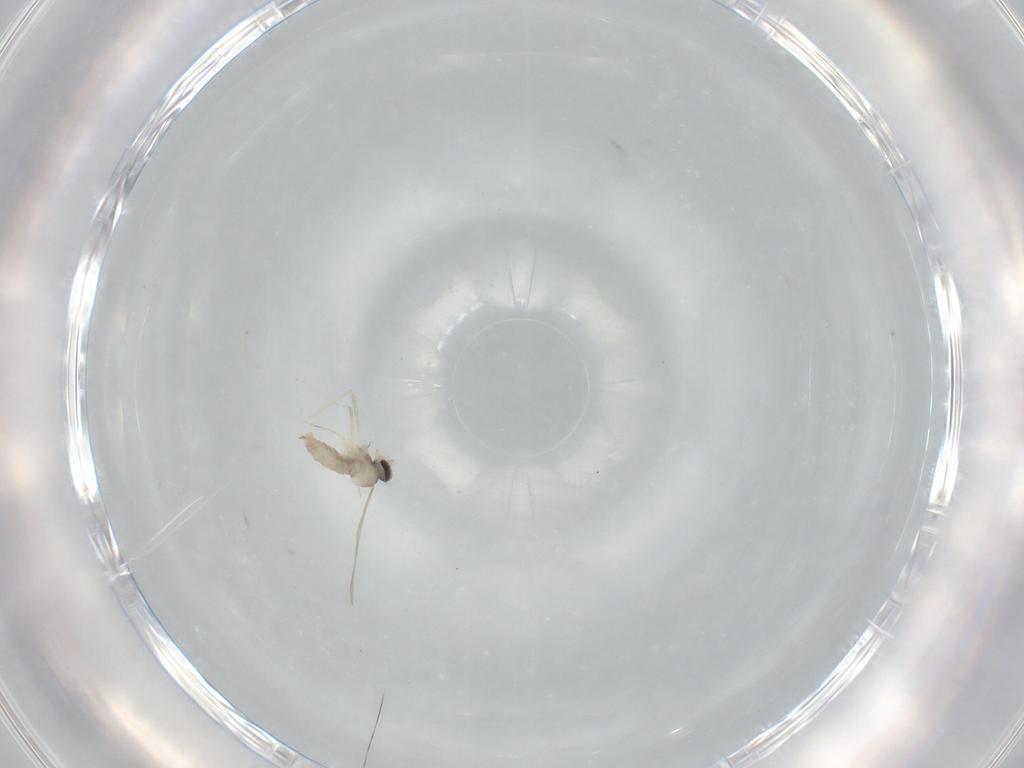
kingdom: Animalia
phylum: Arthropoda
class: Insecta
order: Diptera
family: Cecidomyiidae
